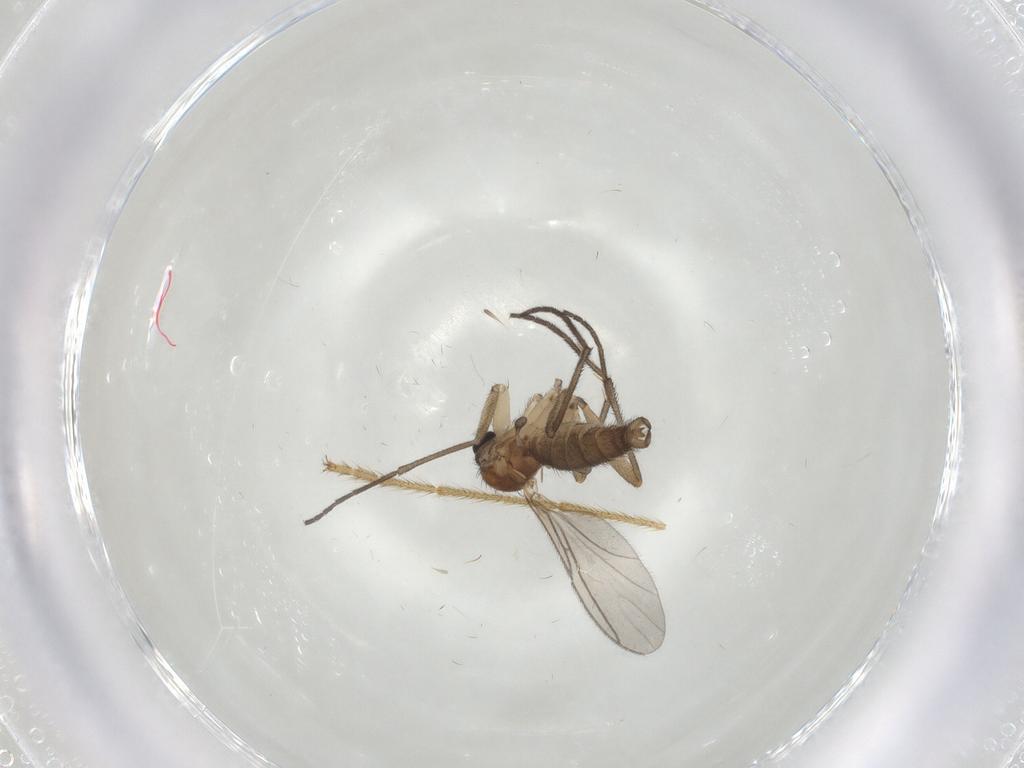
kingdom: Animalia
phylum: Arthropoda
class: Insecta
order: Diptera
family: Sciaridae
